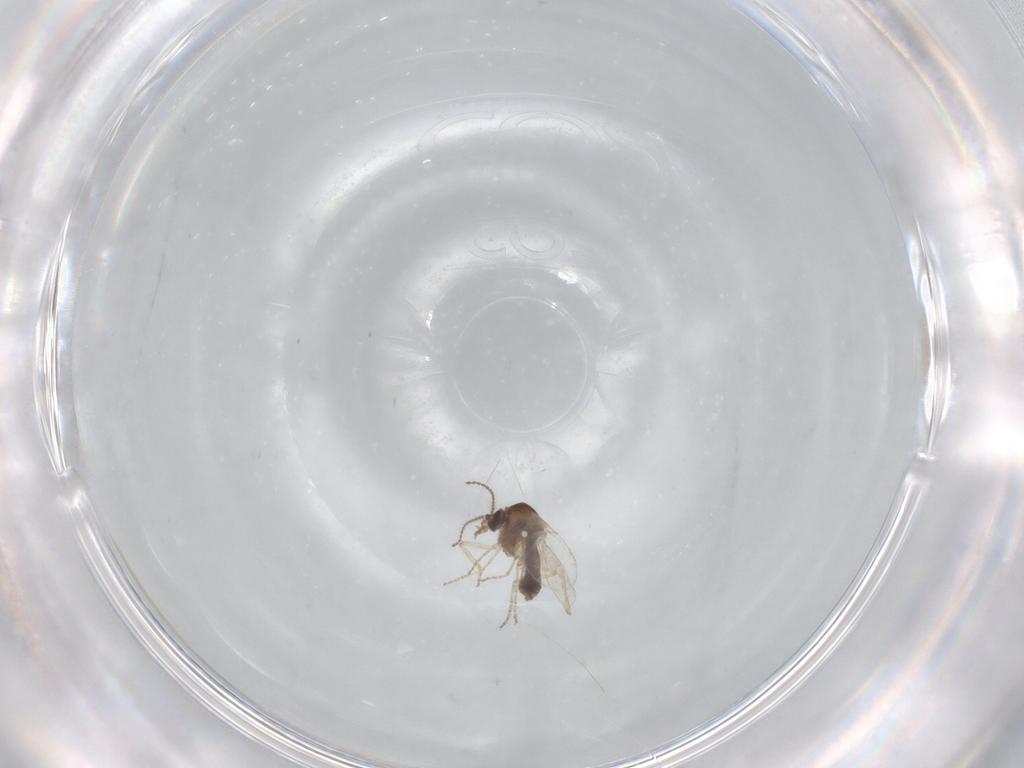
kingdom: Animalia
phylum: Arthropoda
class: Insecta
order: Diptera
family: Ceratopogonidae
